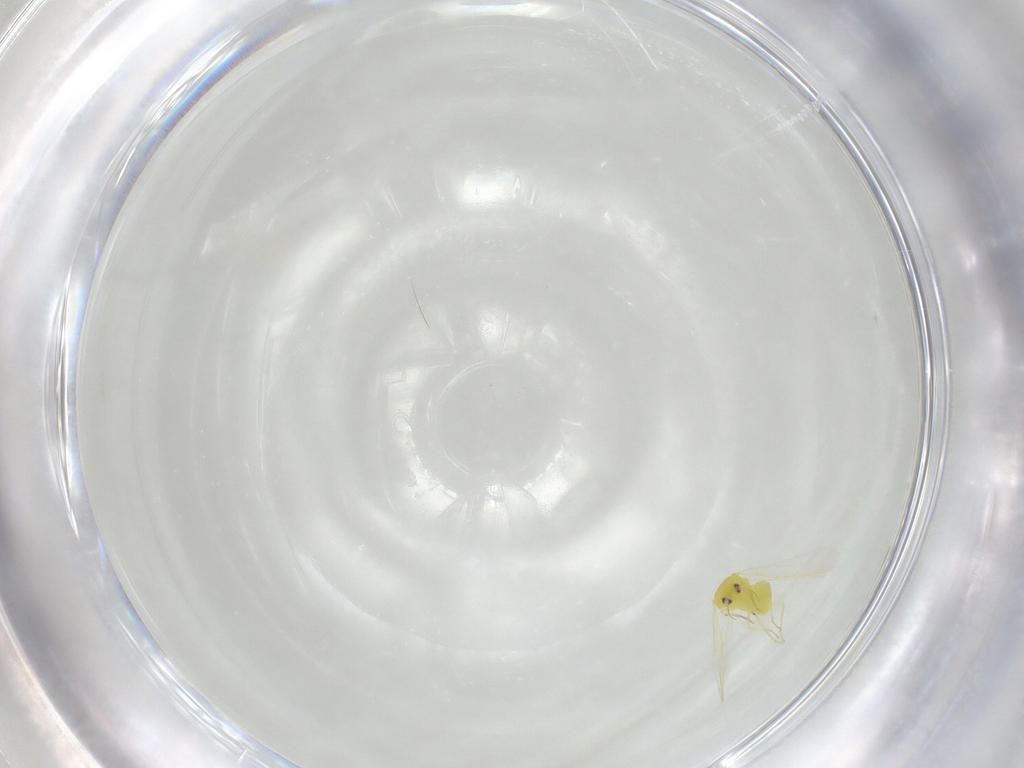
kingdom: Animalia
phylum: Arthropoda
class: Insecta
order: Hemiptera
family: Aleyrodidae
